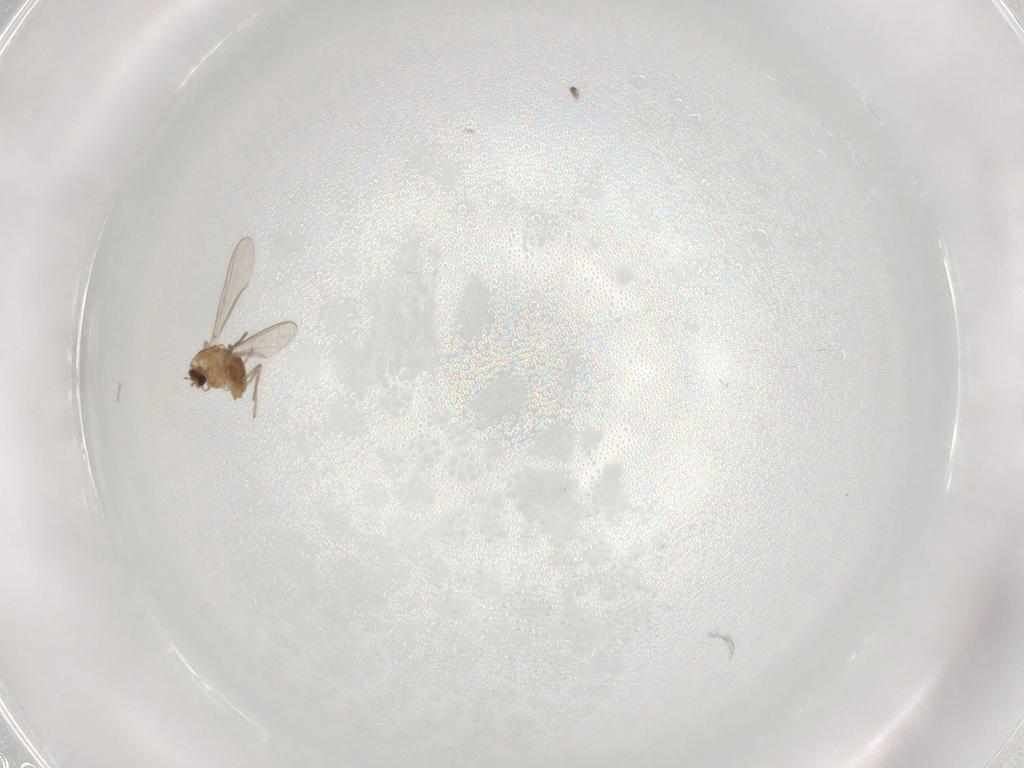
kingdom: Animalia
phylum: Arthropoda
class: Insecta
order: Diptera
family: Chironomidae
